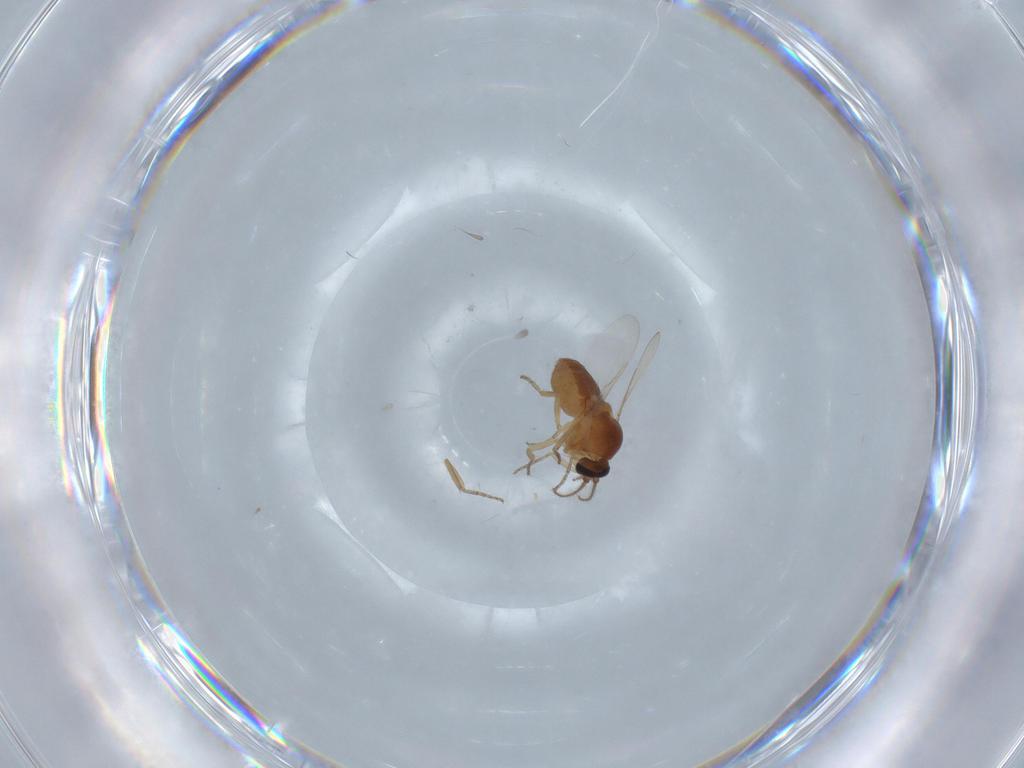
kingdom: Animalia
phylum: Arthropoda
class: Insecta
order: Diptera
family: Ceratopogonidae
